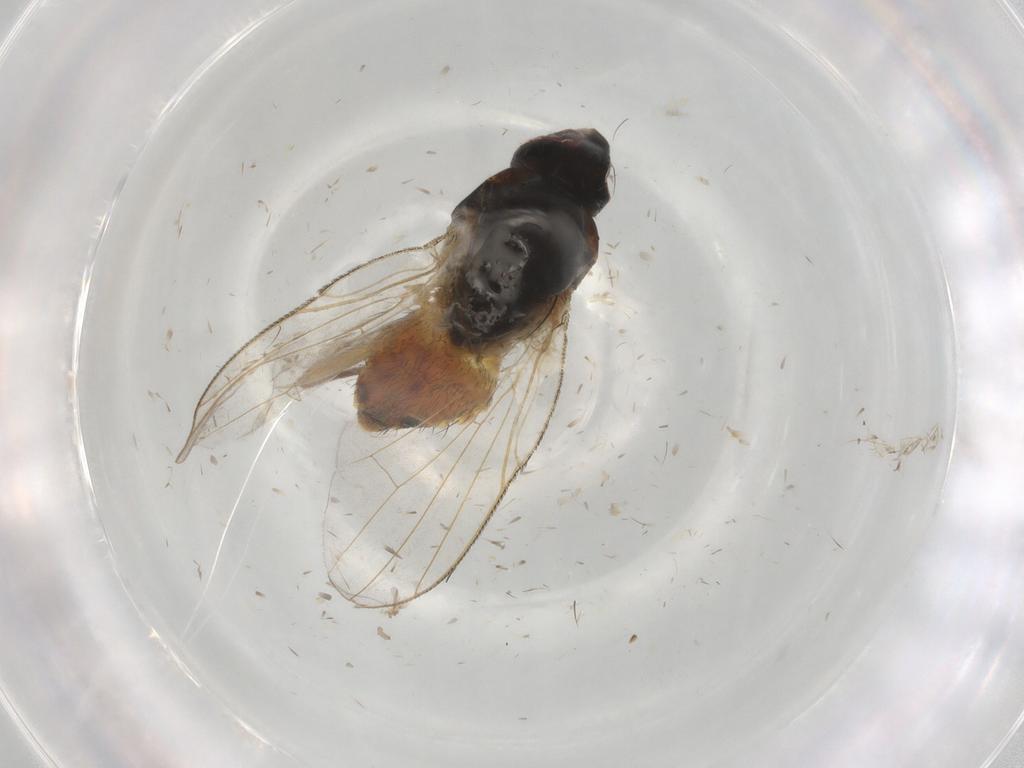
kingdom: Animalia
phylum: Arthropoda
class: Insecta
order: Diptera
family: Muscidae
